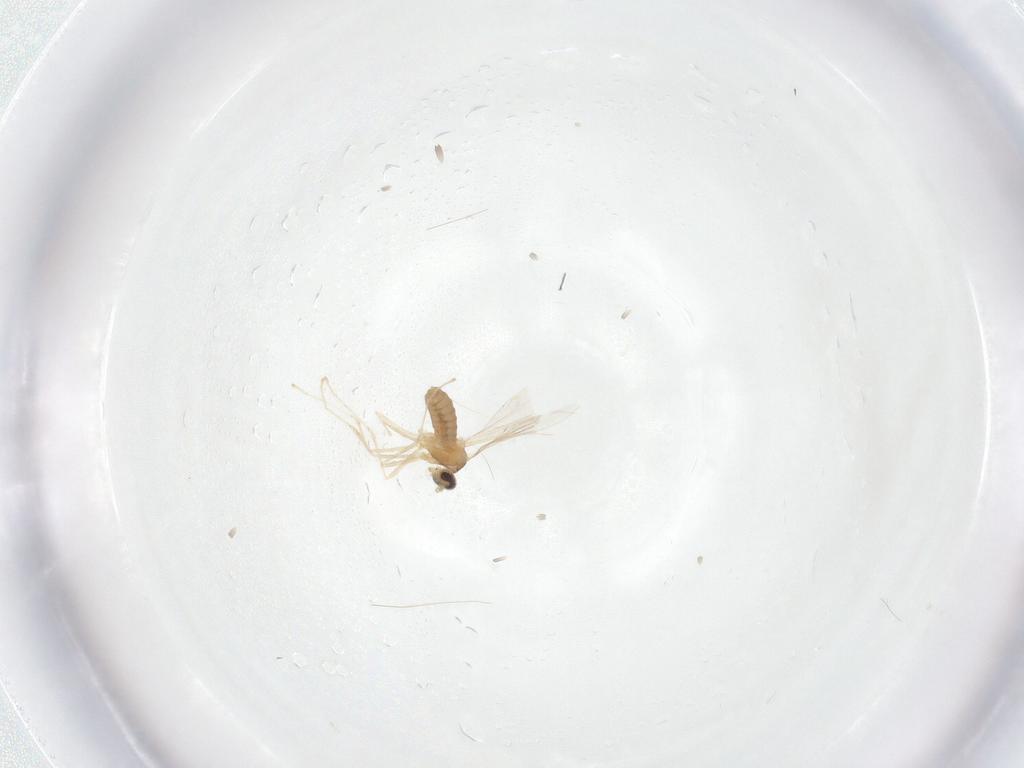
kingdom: Animalia
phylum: Arthropoda
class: Insecta
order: Diptera
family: Cecidomyiidae
